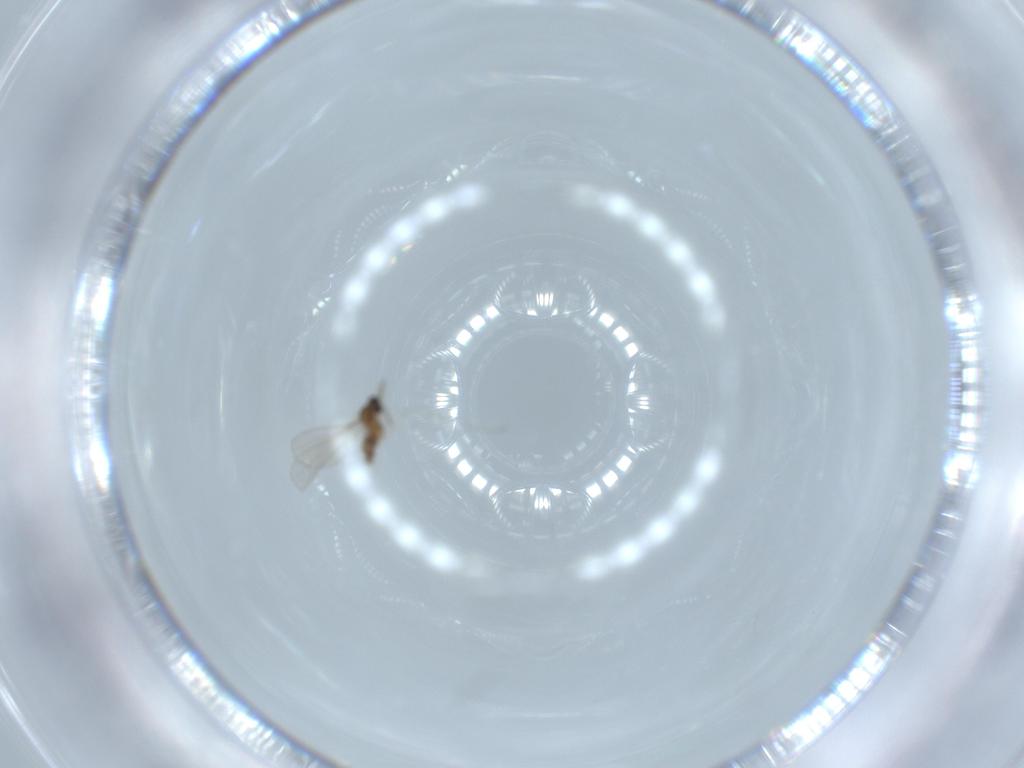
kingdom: Animalia
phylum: Arthropoda
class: Insecta
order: Diptera
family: Cecidomyiidae
